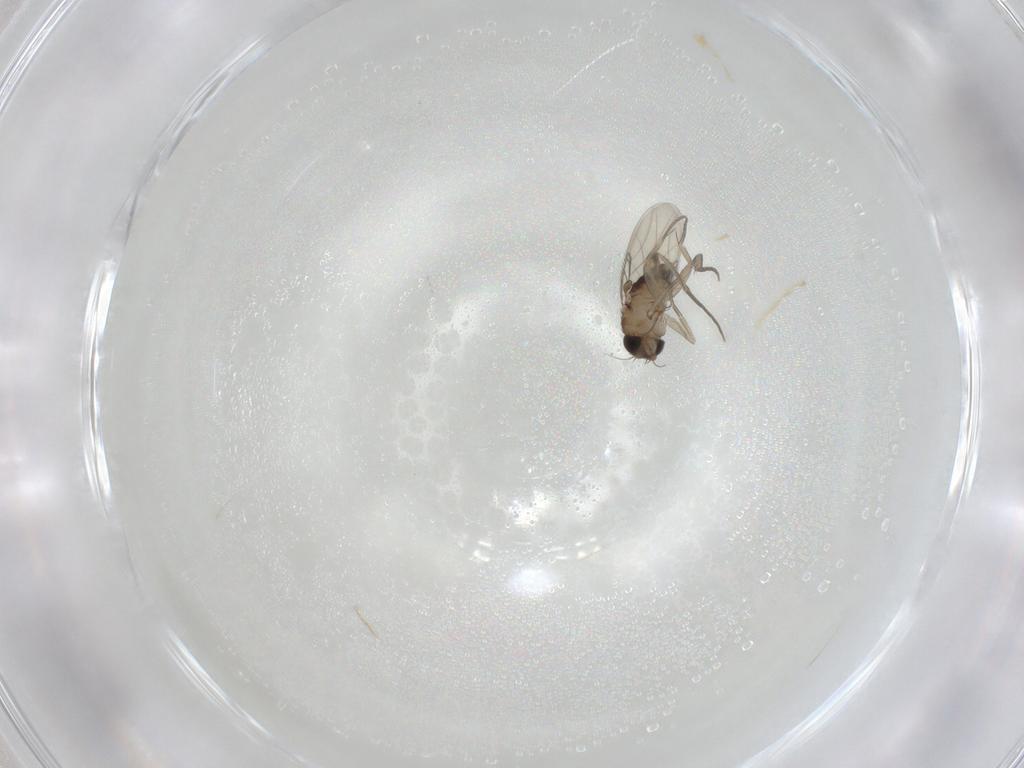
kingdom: Animalia
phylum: Arthropoda
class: Insecta
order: Diptera
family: Phoridae
